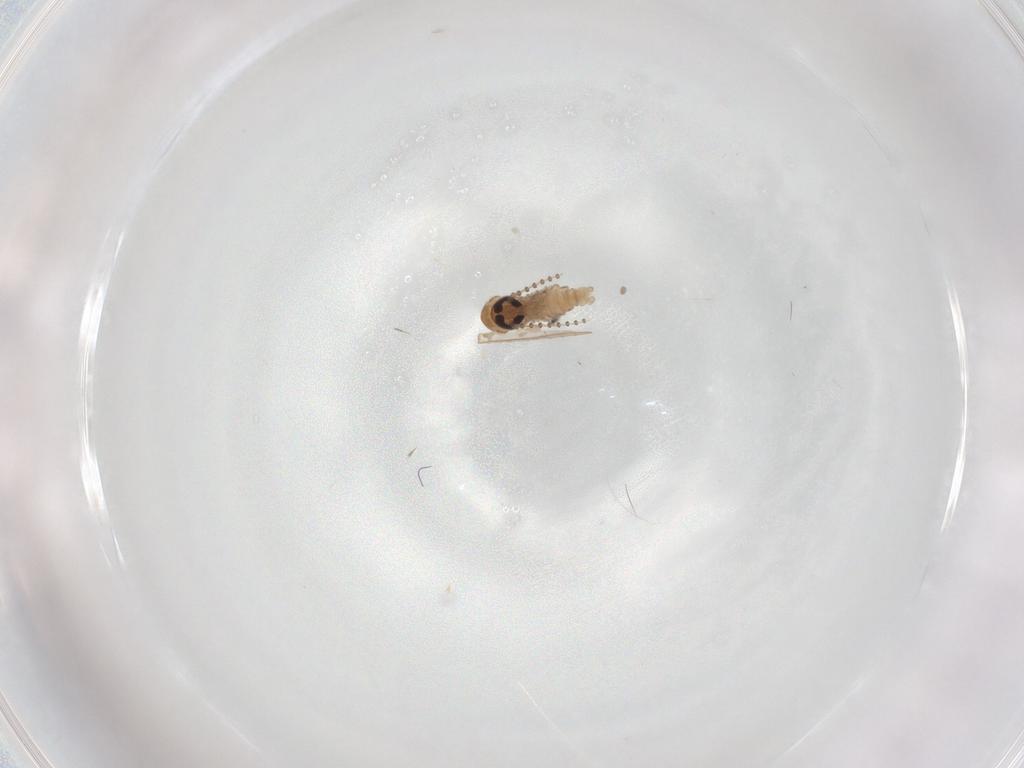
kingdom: Animalia
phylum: Arthropoda
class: Insecta
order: Diptera
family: Psychodidae
